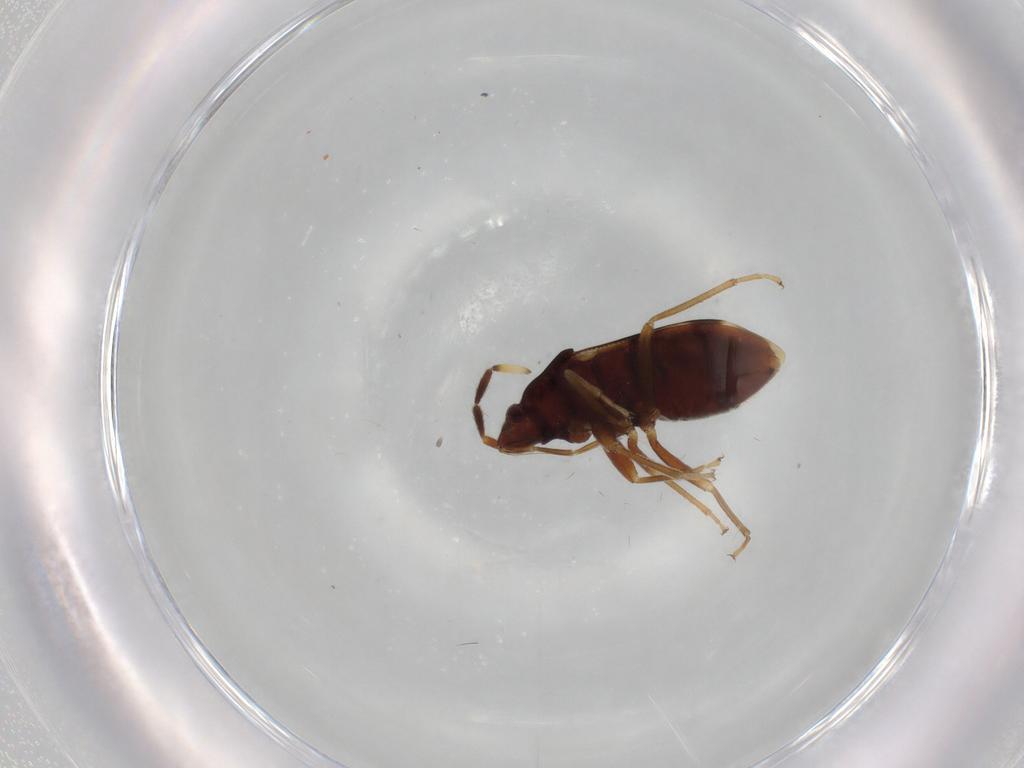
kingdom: Animalia
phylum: Arthropoda
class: Insecta
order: Hemiptera
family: Rhyparochromidae
